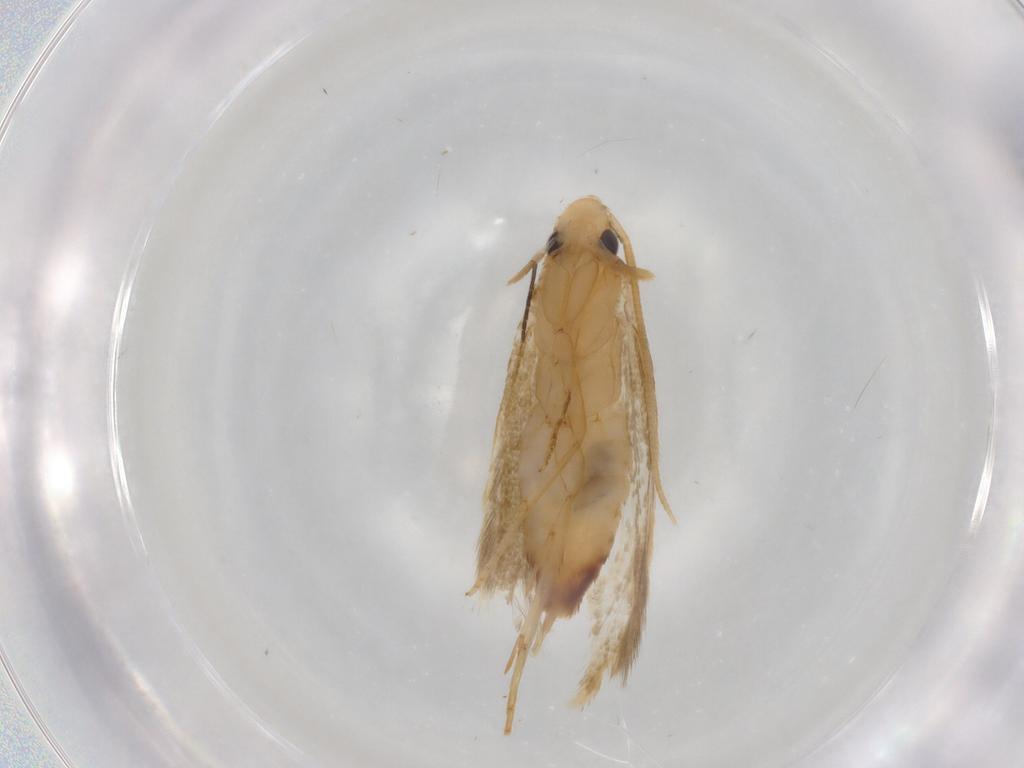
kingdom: Animalia
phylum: Arthropoda
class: Insecta
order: Lepidoptera
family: Tineidae
